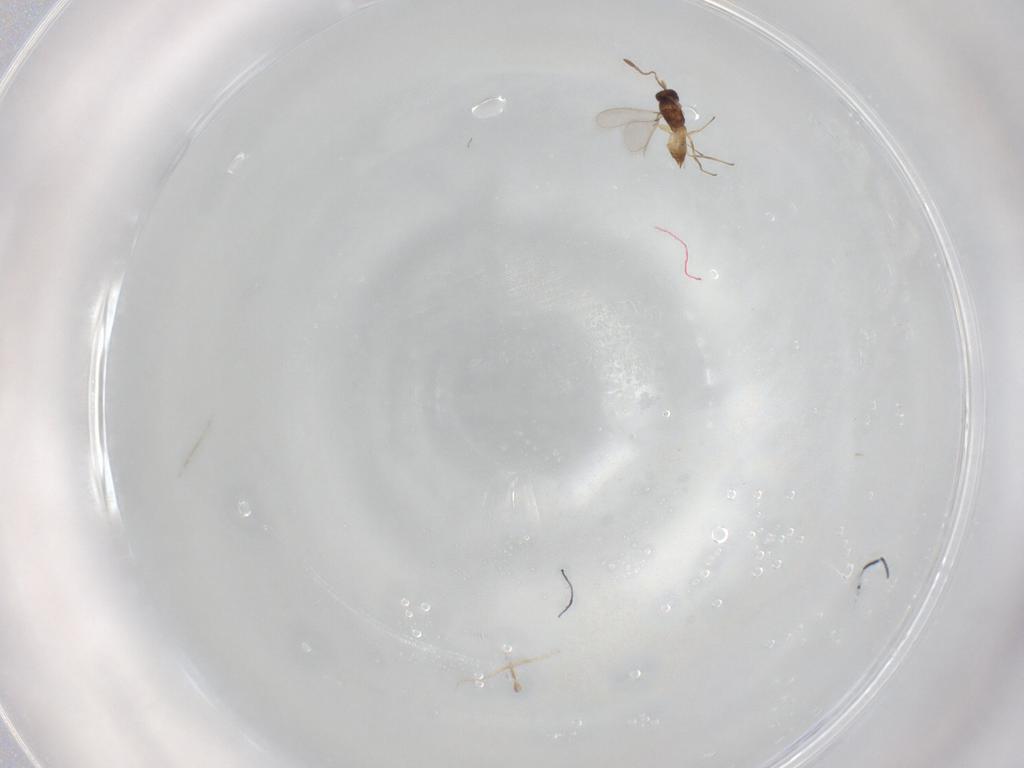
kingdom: Animalia
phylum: Arthropoda
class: Insecta
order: Hymenoptera
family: Mymaridae
